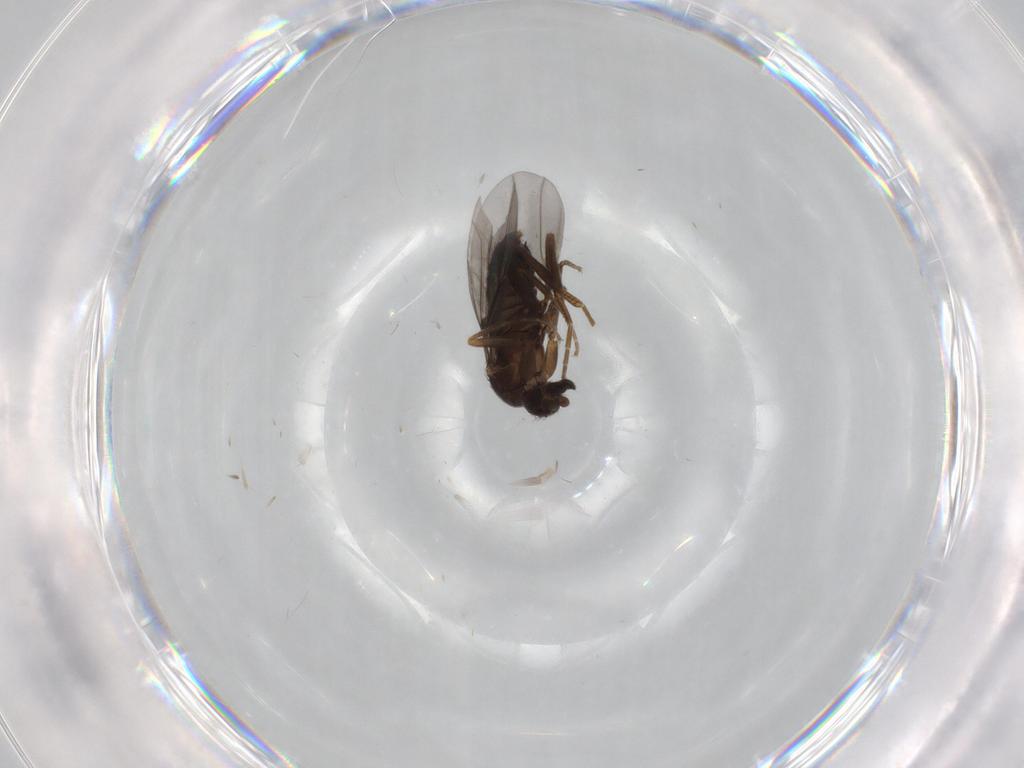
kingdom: Animalia
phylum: Arthropoda
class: Insecta
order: Diptera
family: Phoridae
